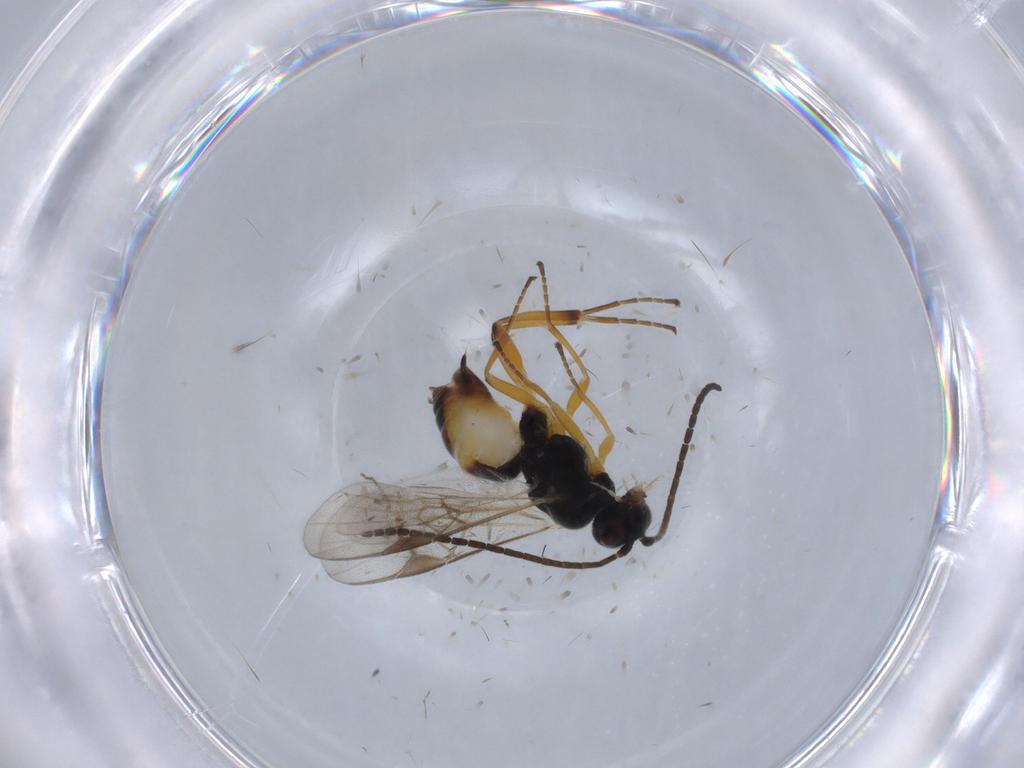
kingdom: Animalia
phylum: Arthropoda
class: Insecta
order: Hymenoptera
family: Braconidae
